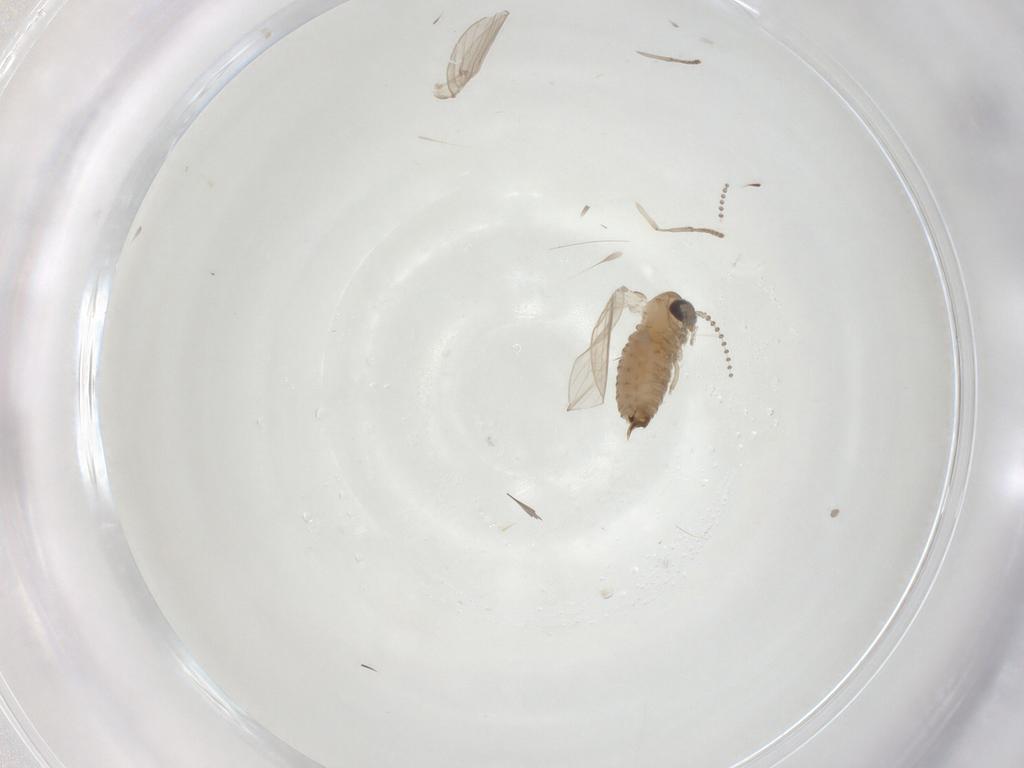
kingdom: Animalia
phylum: Arthropoda
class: Insecta
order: Diptera
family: Psychodidae
